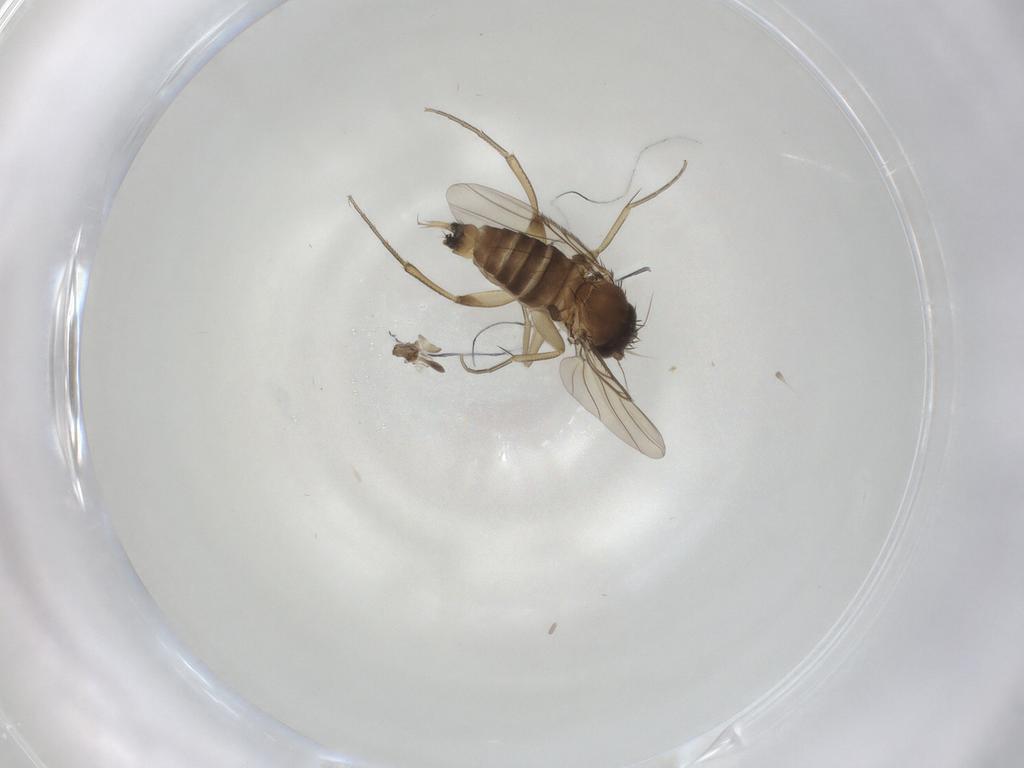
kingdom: Animalia
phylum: Arthropoda
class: Insecta
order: Diptera
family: Phoridae
